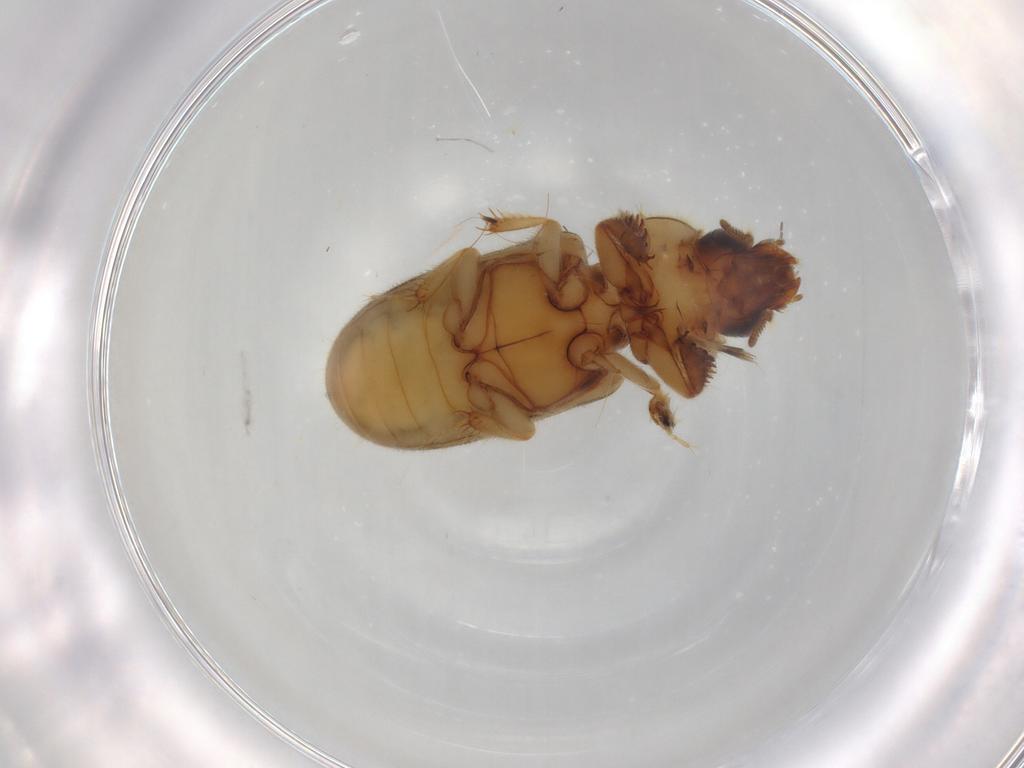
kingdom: Animalia
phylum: Arthropoda
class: Insecta
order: Coleoptera
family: Heteroceridae
